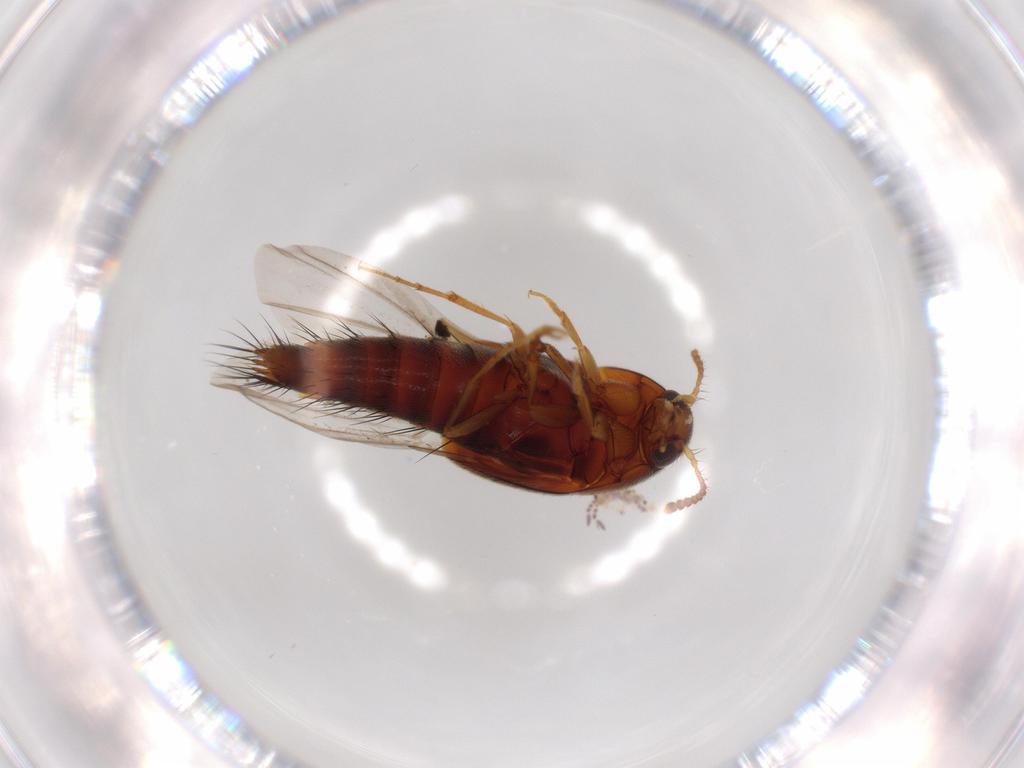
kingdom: Animalia
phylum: Arthropoda
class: Insecta
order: Coleoptera
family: Staphylinidae
